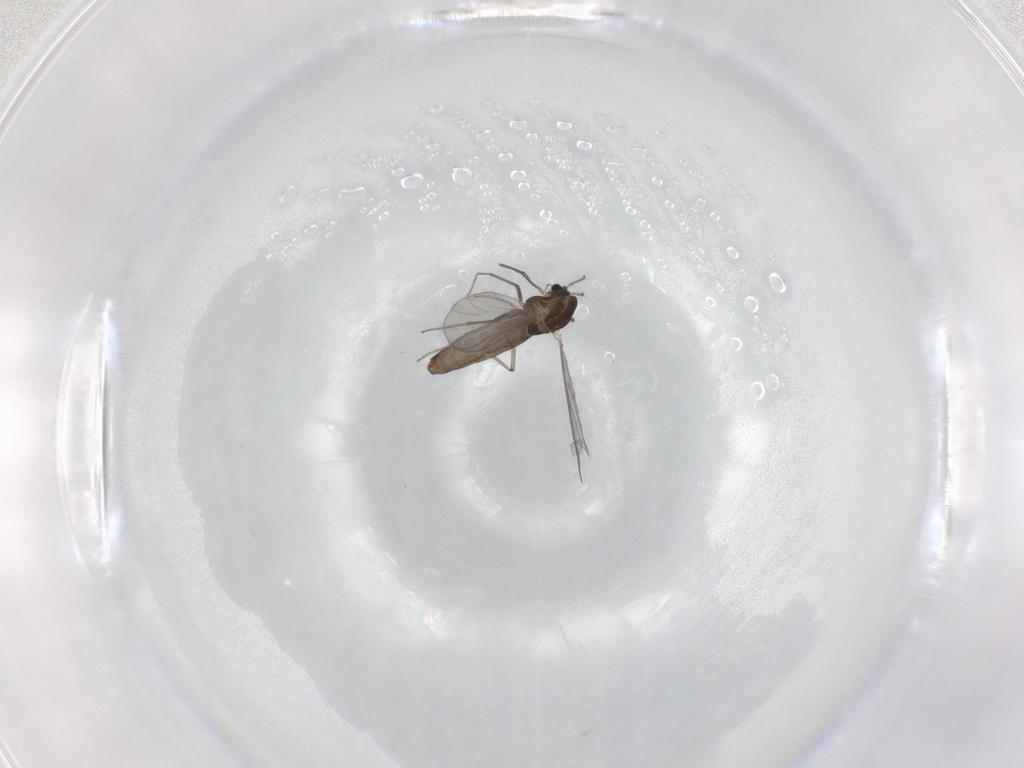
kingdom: Animalia
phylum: Arthropoda
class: Insecta
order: Diptera
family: Chironomidae
